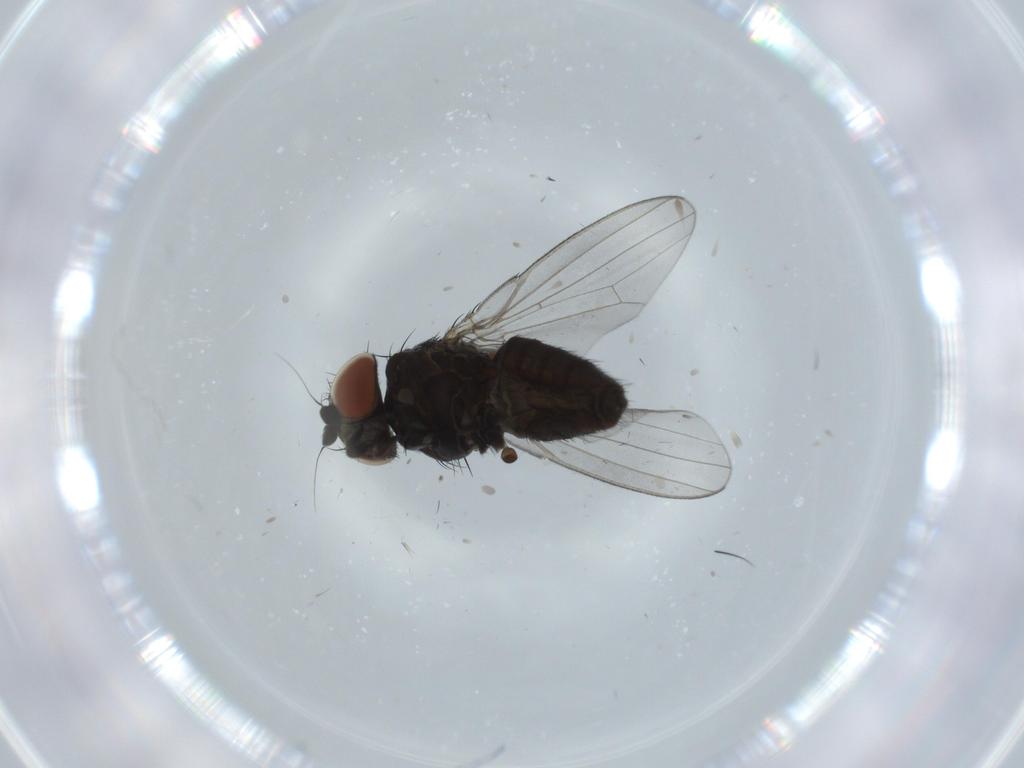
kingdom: Animalia
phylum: Arthropoda
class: Insecta
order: Diptera
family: Milichiidae
